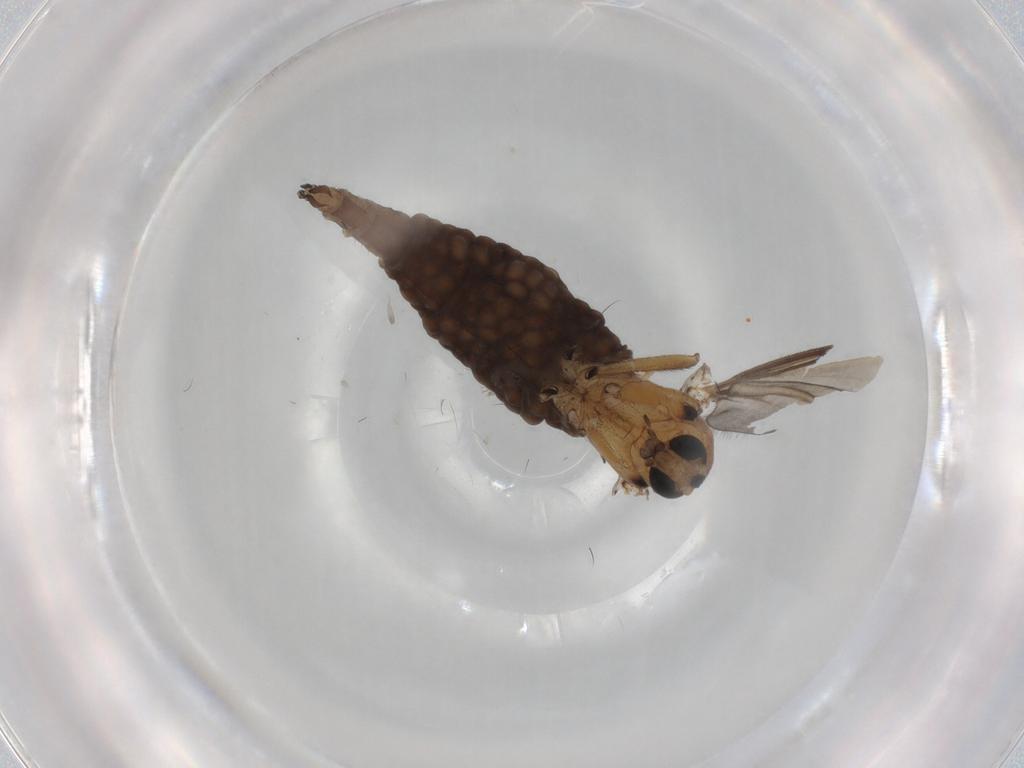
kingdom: Animalia
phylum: Arthropoda
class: Insecta
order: Diptera
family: Sciaridae
